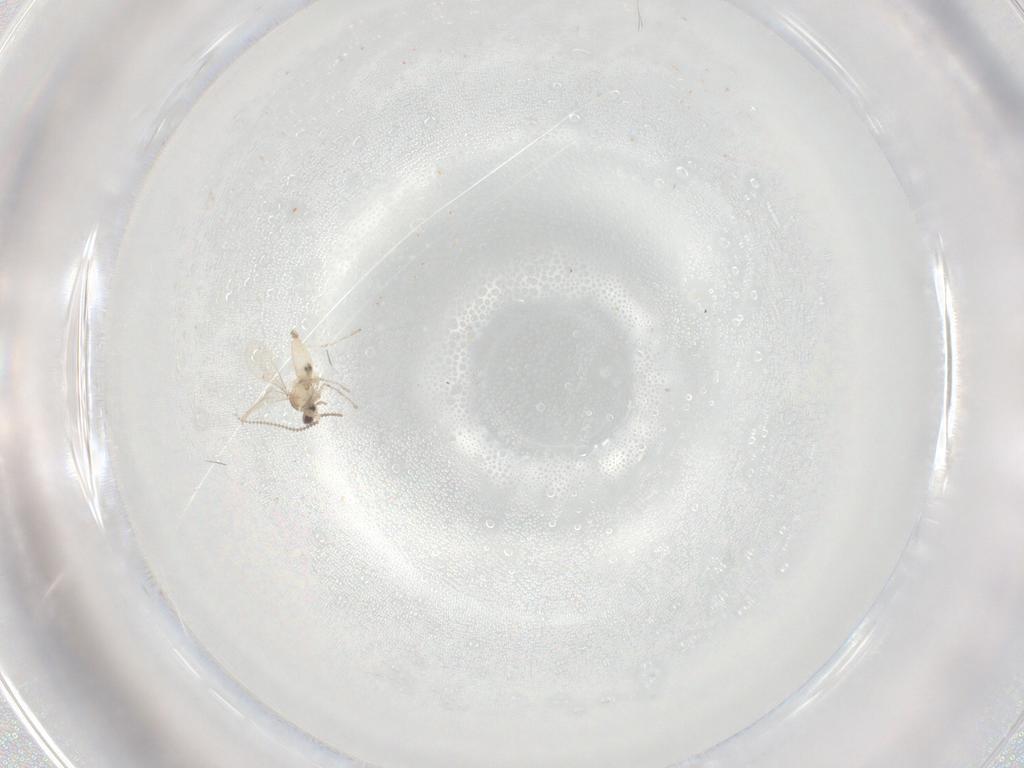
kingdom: Animalia
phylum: Arthropoda
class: Insecta
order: Diptera
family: Cecidomyiidae
